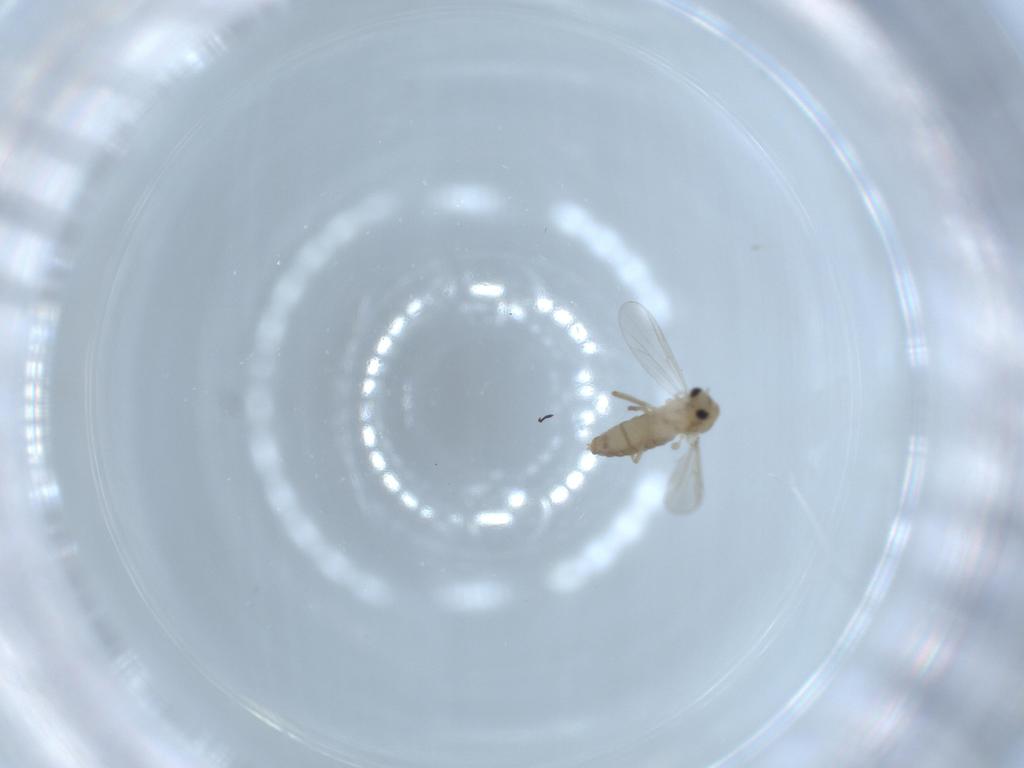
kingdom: Animalia
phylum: Arthropoda
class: Insecta
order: Diptera
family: Chironomidae
